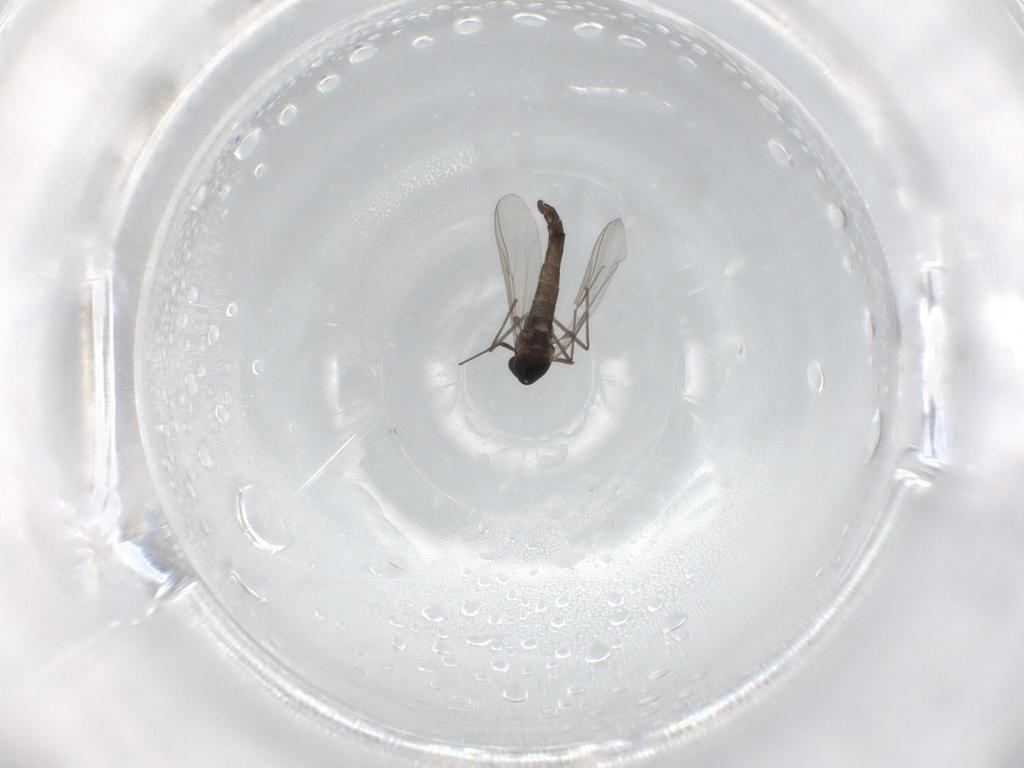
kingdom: Animalia
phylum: Arthropoda
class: Insecta
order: Diptera
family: Chironomidae
